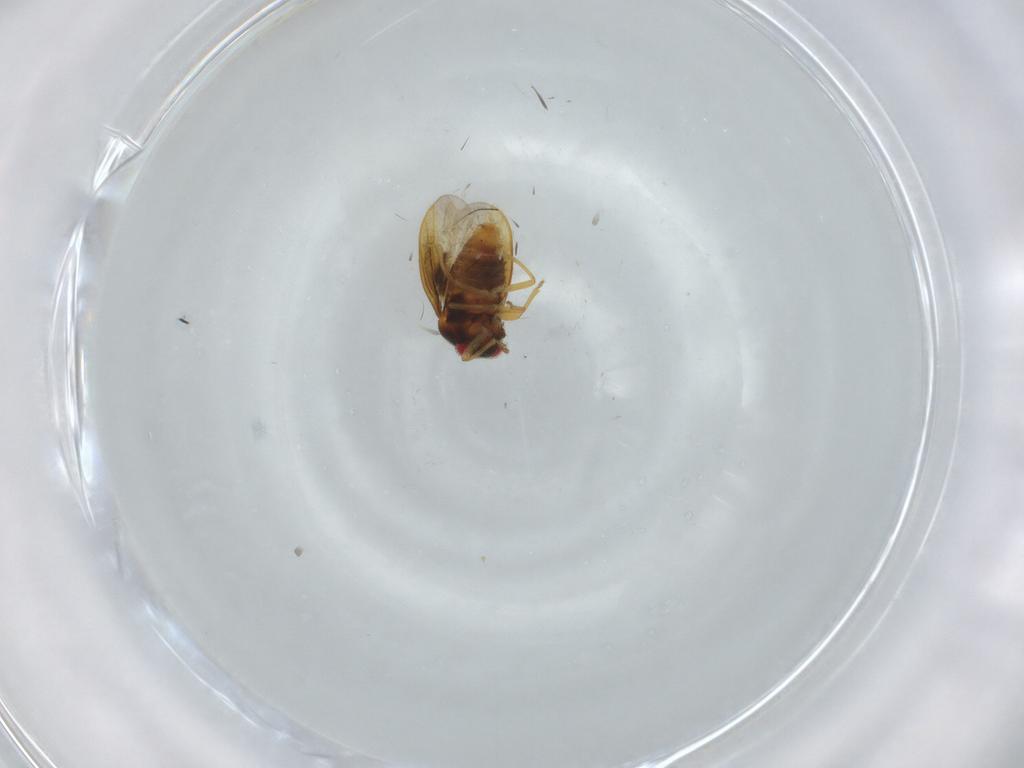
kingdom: Animalia
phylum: Arthropoda
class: Insecta
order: Hemiptera
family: Schizopteridae
